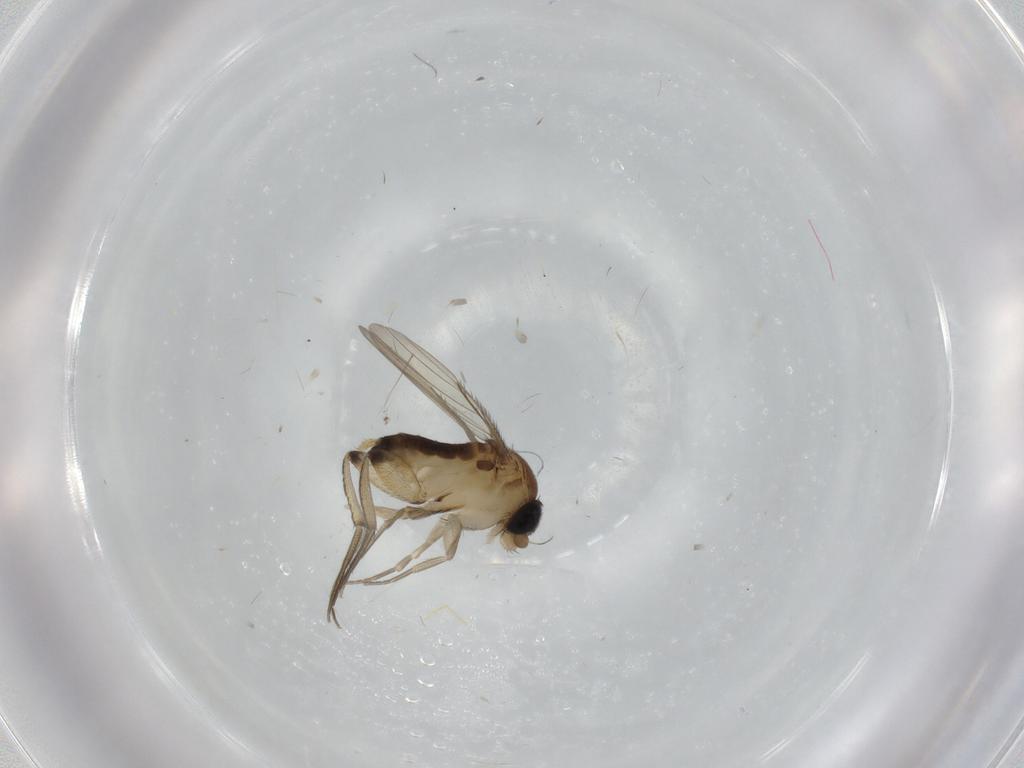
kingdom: Animalia
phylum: Arthropoda
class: Insecta
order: Diptera
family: Phoridae
